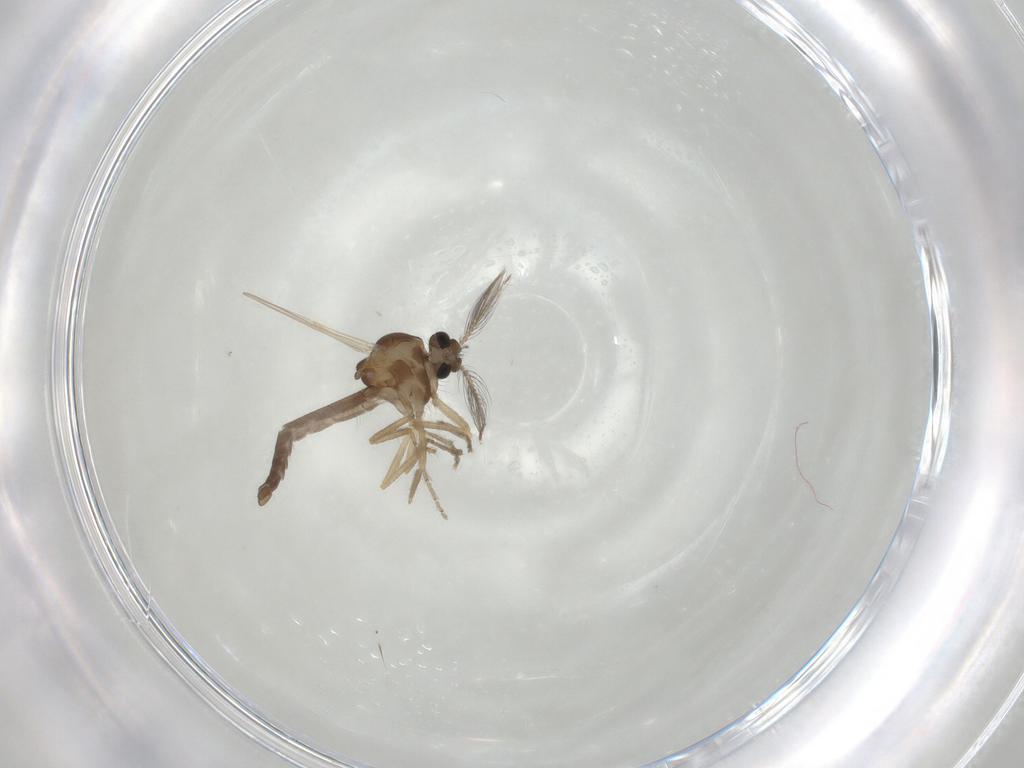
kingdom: Animalia
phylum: Arthropoda
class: Insecta
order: Diptera
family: Ceratopogonidae
